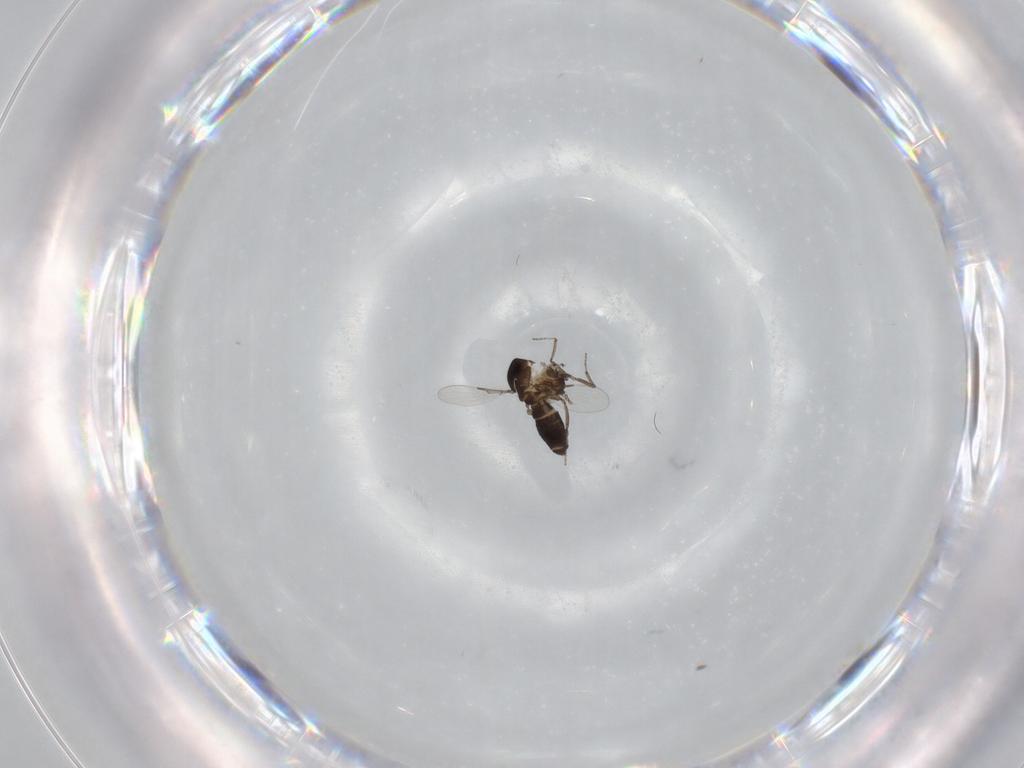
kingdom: Animalia
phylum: Arthropoda
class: Insecta
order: Diptera
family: Ceratopogonidae
